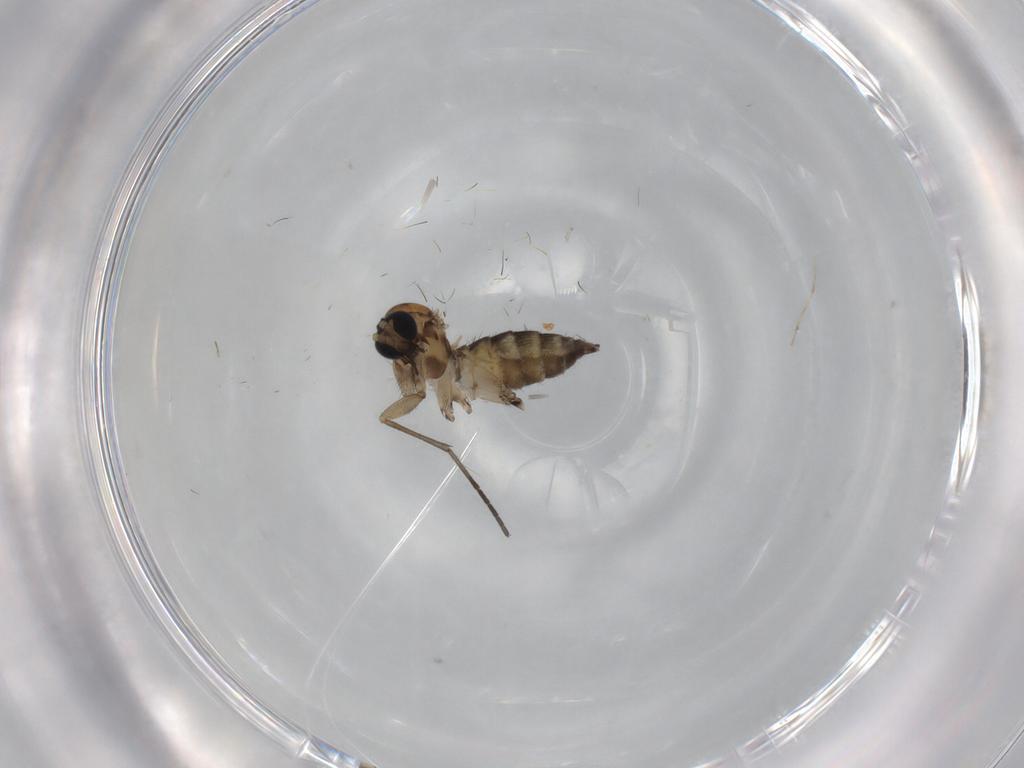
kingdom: Animalia
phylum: Arthropoda
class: Insecta
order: Diptera
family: Sciaridae
